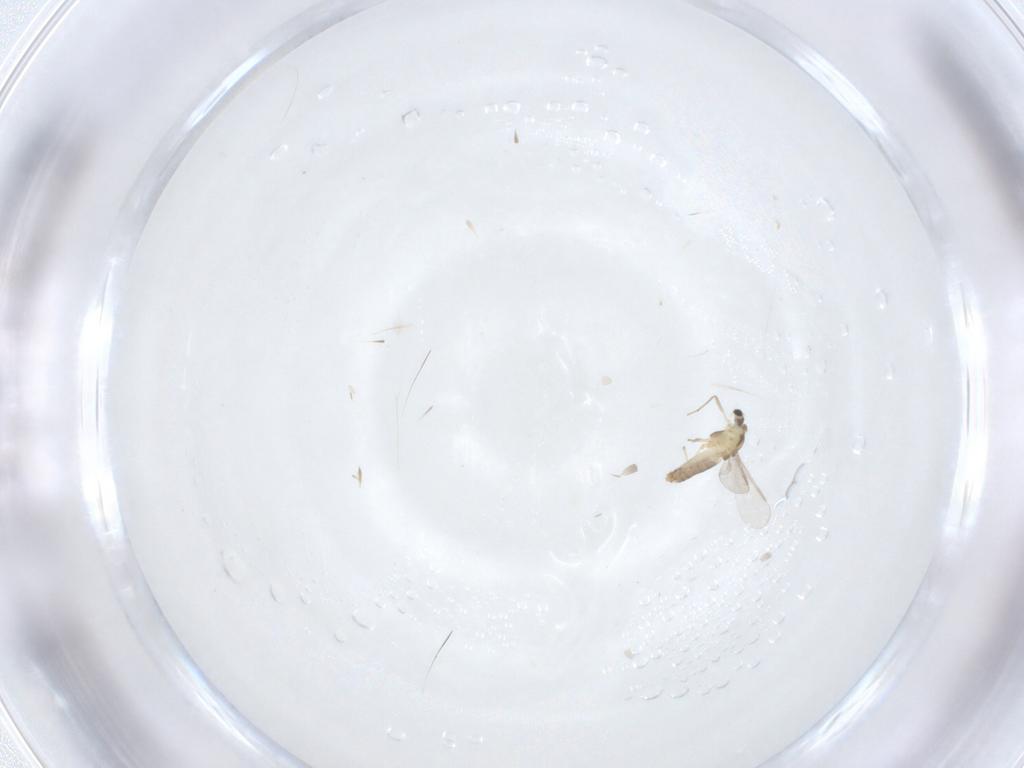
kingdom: Animalia
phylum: Arthropoda
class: Insecta
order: Diptera
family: Chironomidae
